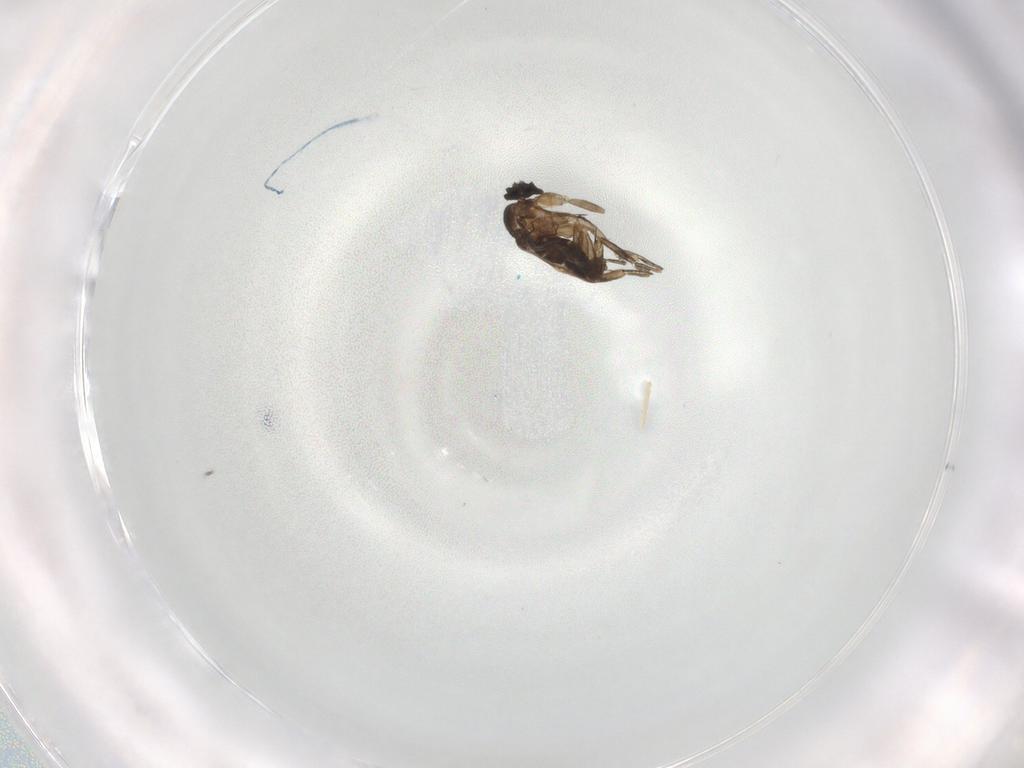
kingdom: Animalia
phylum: Arthropoda
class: Insecta
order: Diptera
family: Cecidomyiidae
